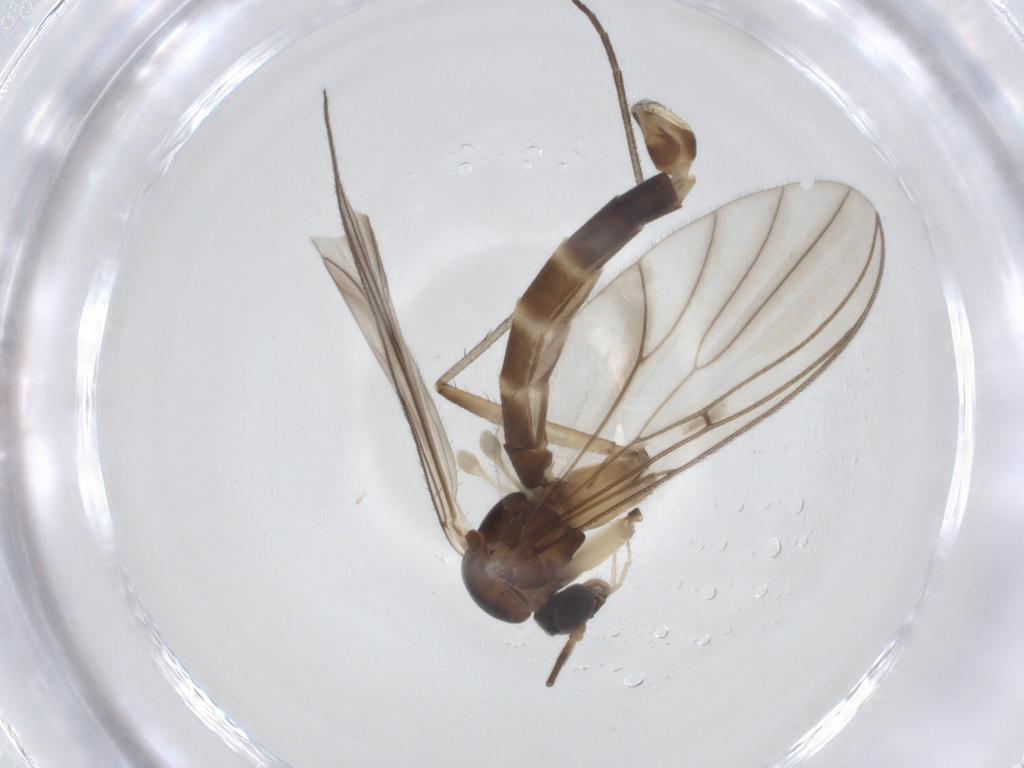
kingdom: Animalia
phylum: Arthropoda
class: Insecta
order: Diptera
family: Mycetophilidae
